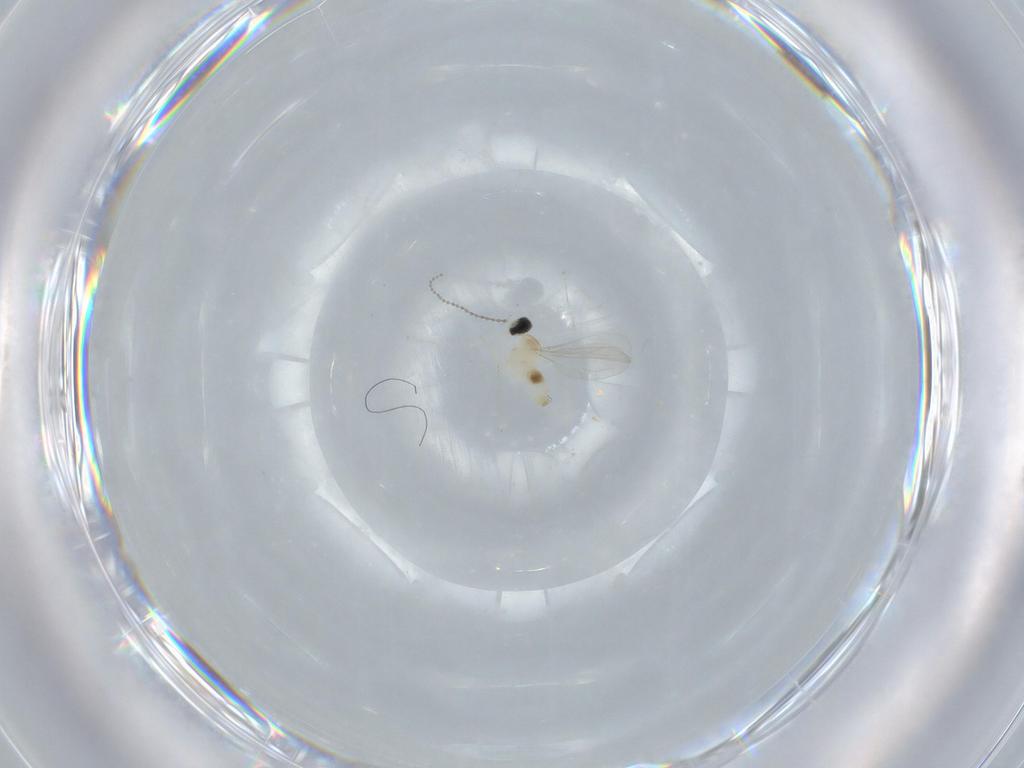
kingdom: Animalia
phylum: Arthropoda
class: Insecta
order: Diptera
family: Cecidomyiidae
